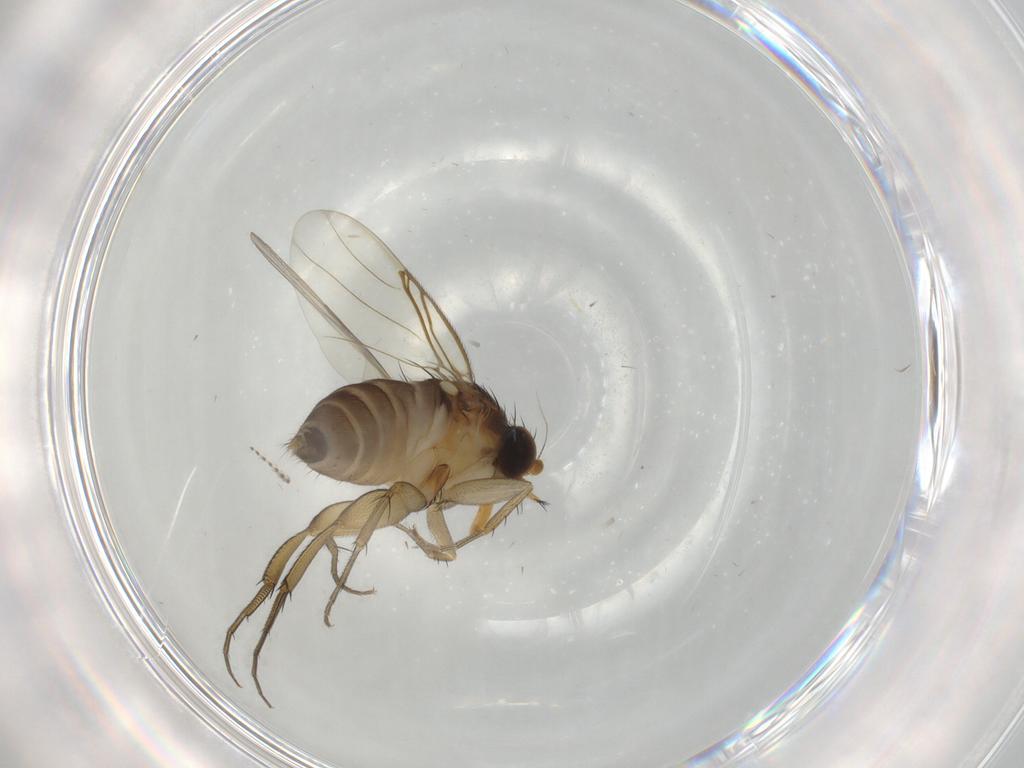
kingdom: Animalia
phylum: Arthropoda
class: Insecta
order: Diptera
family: Phoridae
